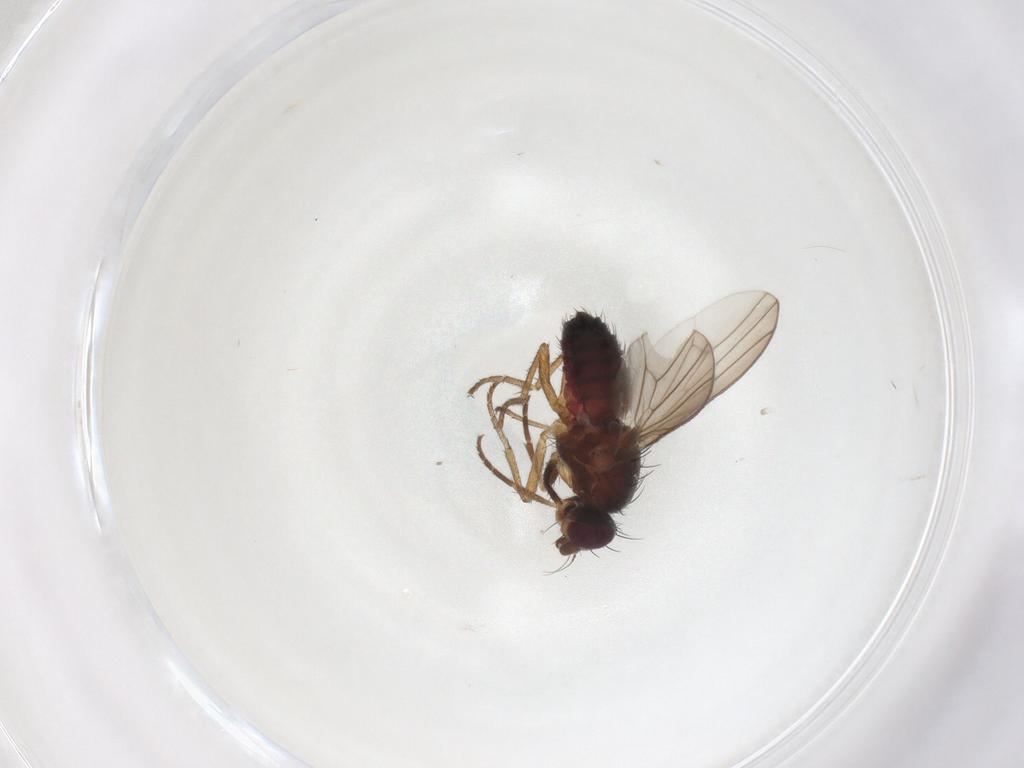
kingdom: Animalia
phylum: Arthropoda
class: Insecta
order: Diptera
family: Heleomyzidae
